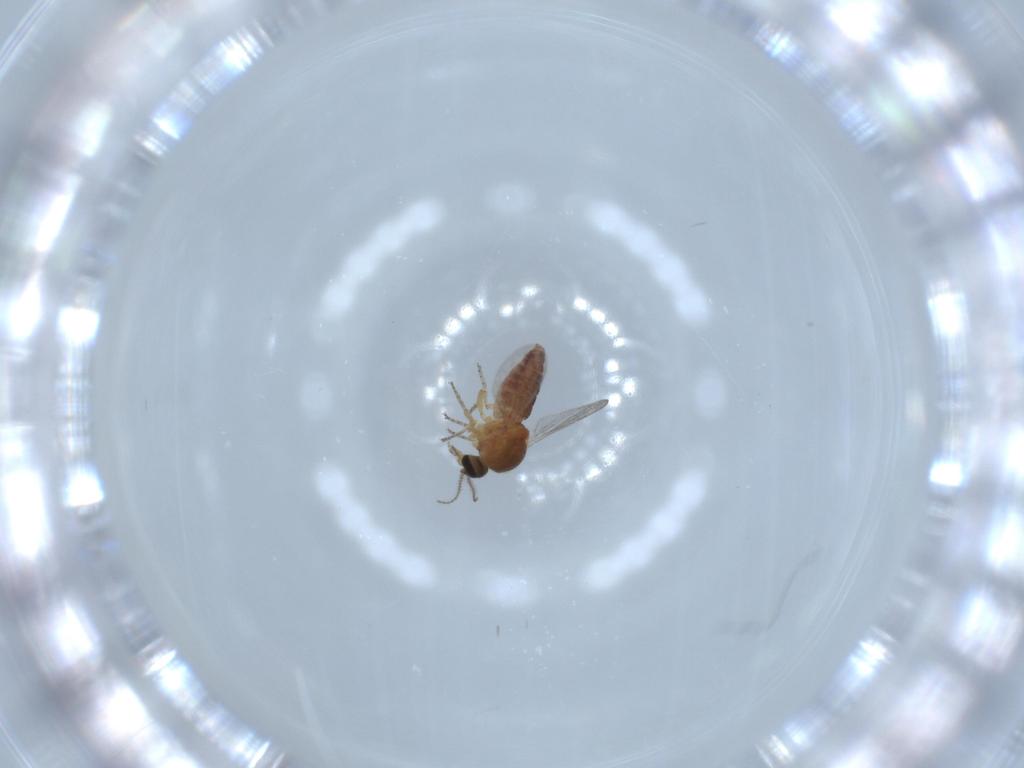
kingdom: Animalia
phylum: Arthropoda
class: Insecta
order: Diptera
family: Ceratopogonidae
